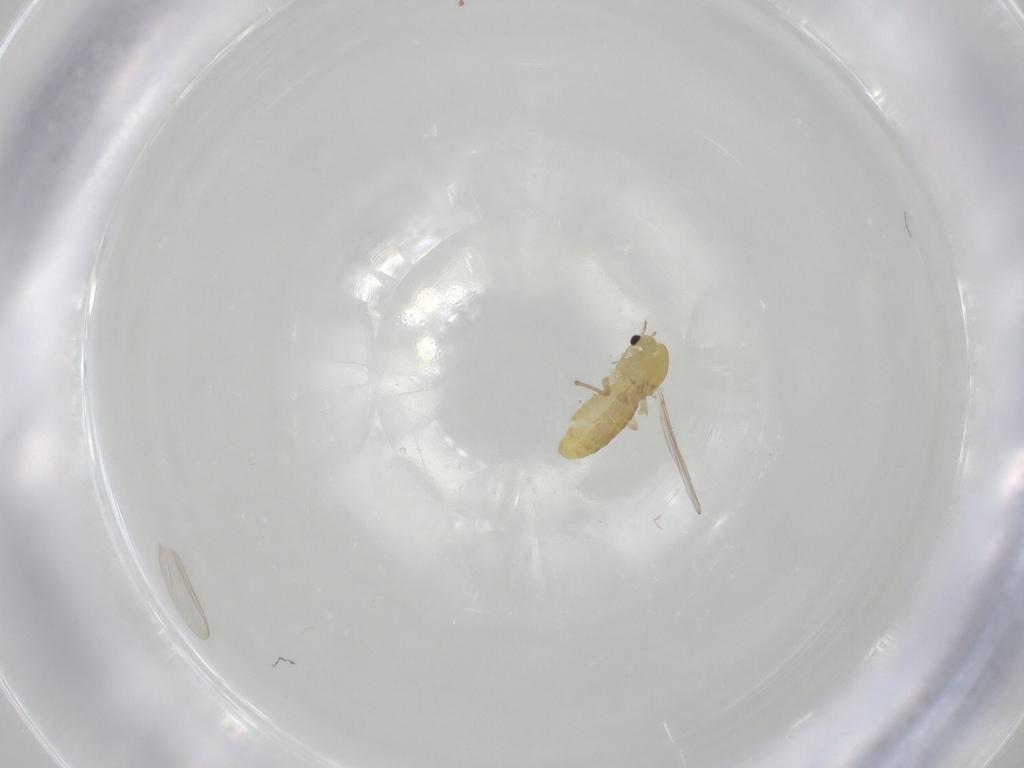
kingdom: Animalia
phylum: Arthropoda
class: Insecta
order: Diptera
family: Chironomidae
